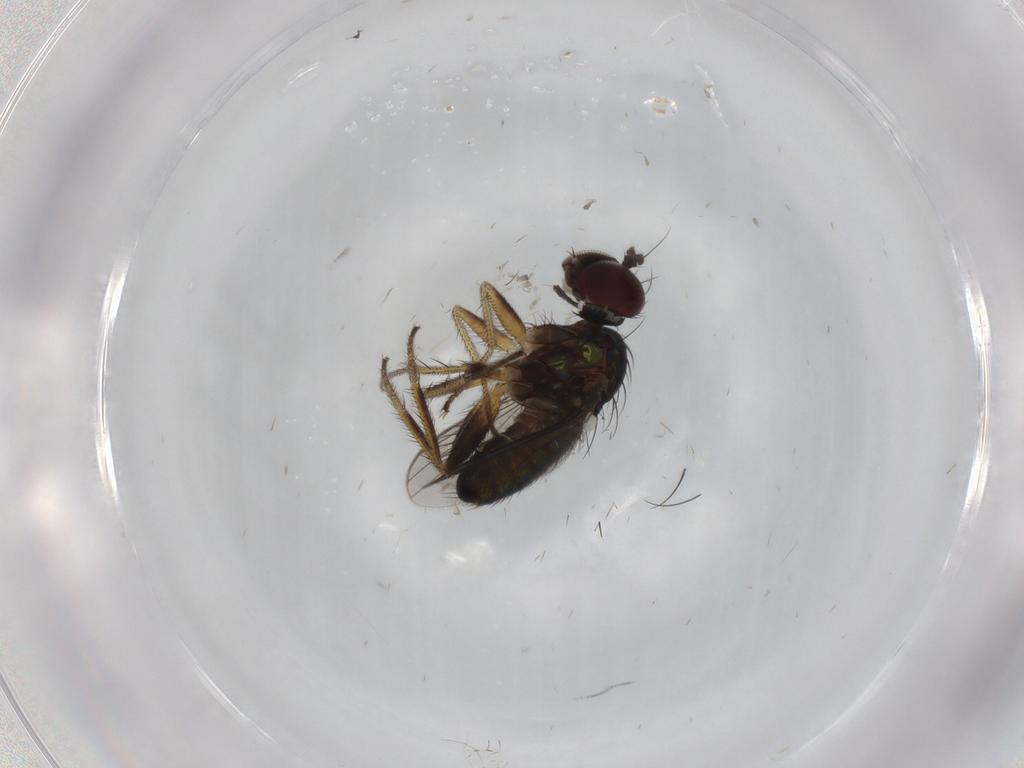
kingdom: Animalia
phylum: Arthropoda
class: Insecta
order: Diptera
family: Dolichopodidae
